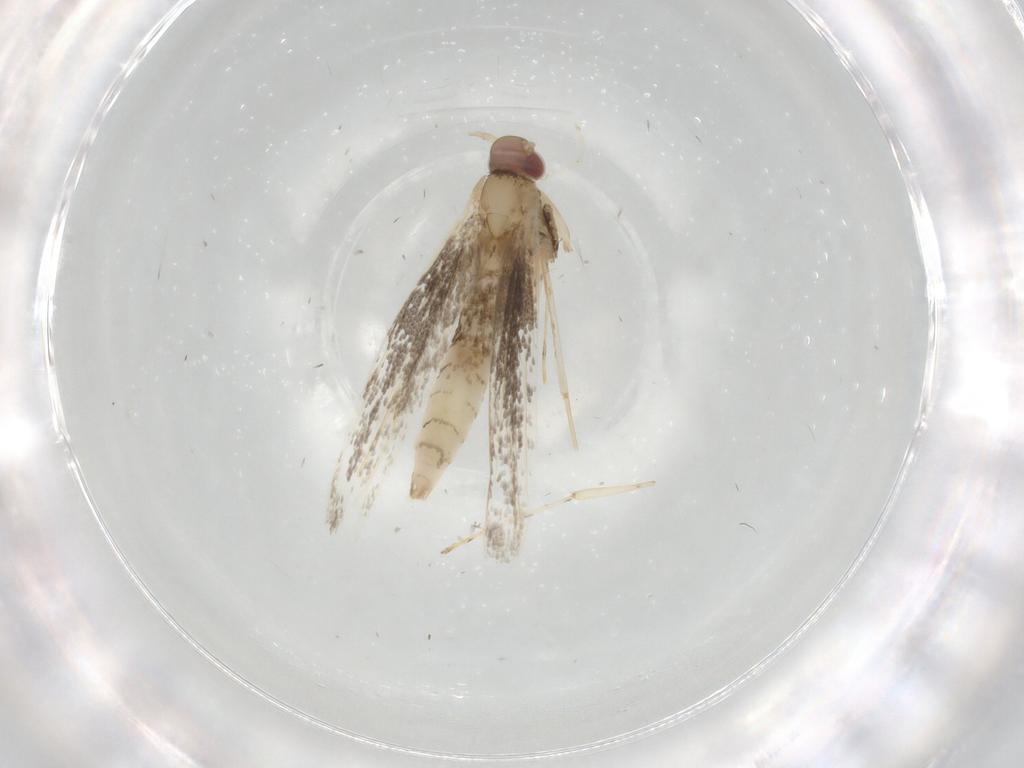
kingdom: Animalia
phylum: Arthropoda
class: Insecta
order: Lepidoptera
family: Gracillariidae
